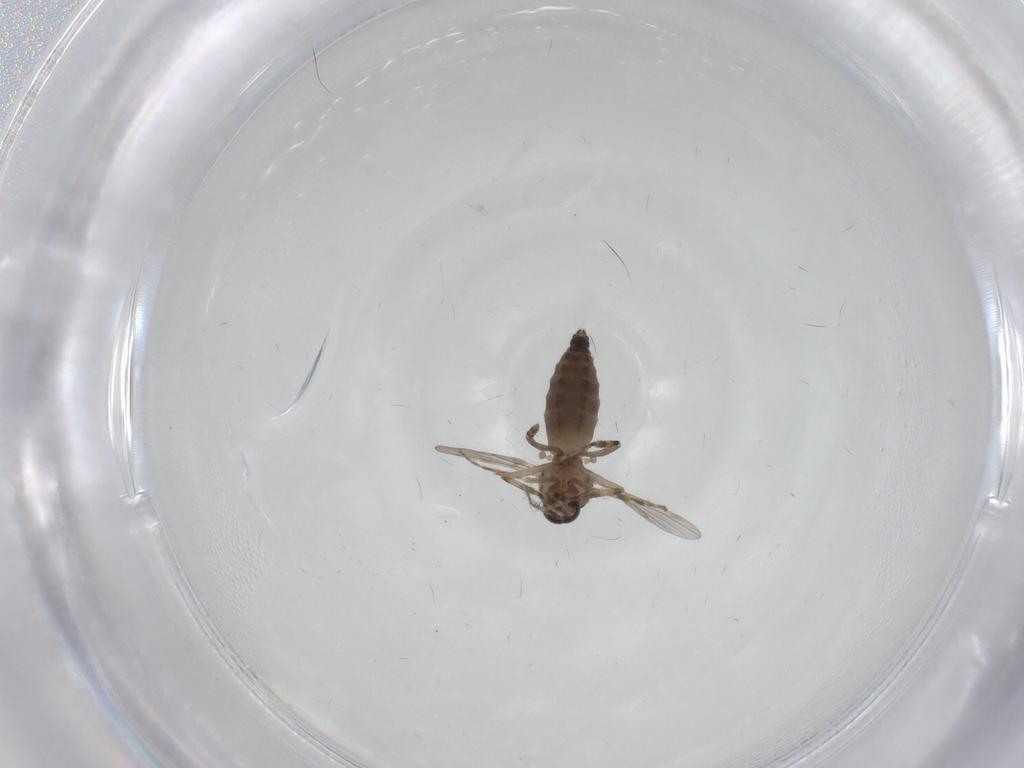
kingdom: Animalia
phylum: Arthropoda
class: Insecta
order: Diptera
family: Ceratopogonidae
